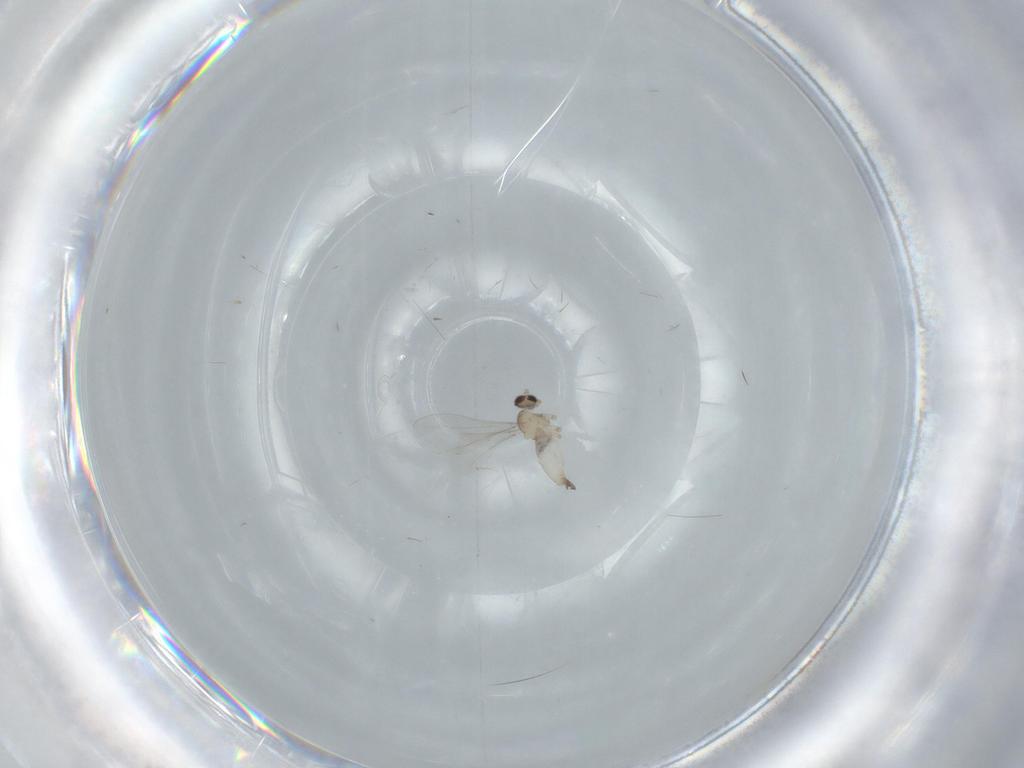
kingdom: Animalia
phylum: Arthropoda
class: Insecta
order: Diptera
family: Cecidomyiidae
